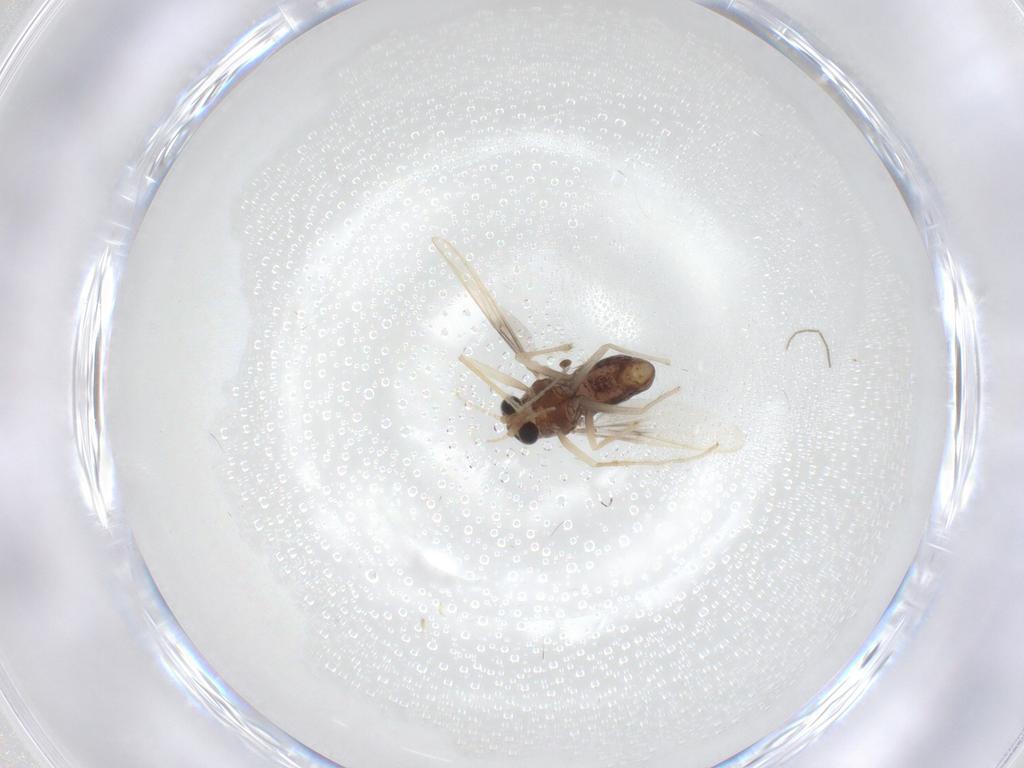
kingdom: Animalia
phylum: Arthropoda
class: Insecta
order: Diptera
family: Chironomidae
